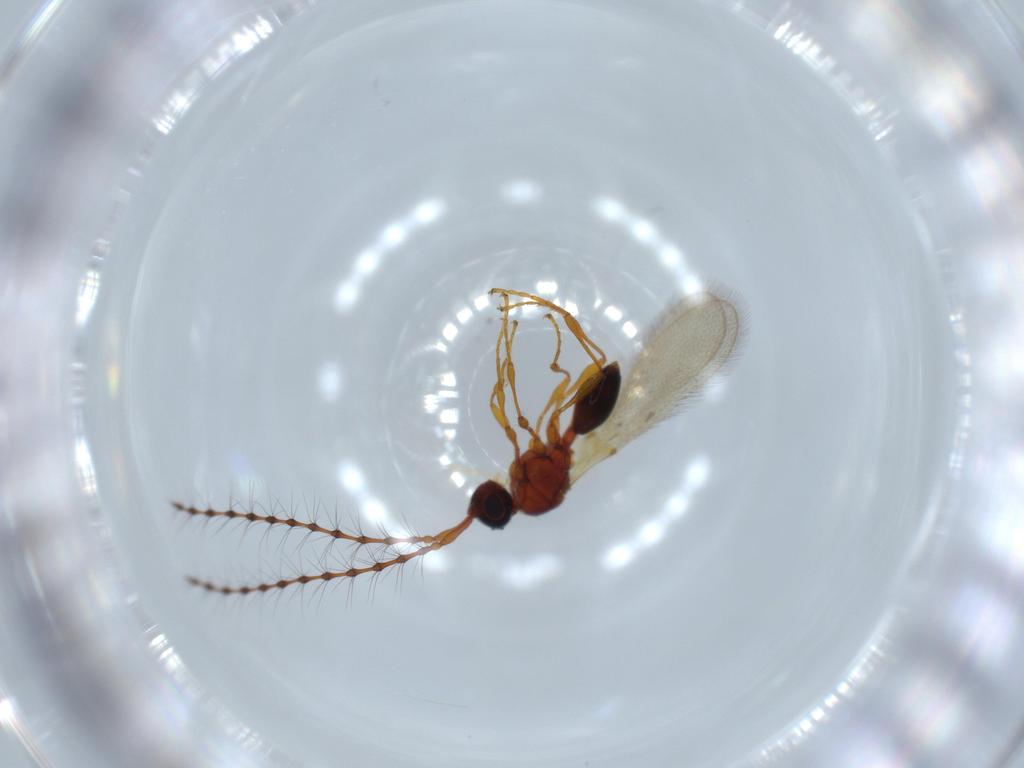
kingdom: Animalia
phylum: Arthropoda
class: Insecta
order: Hymenoptera
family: Diapriidae
